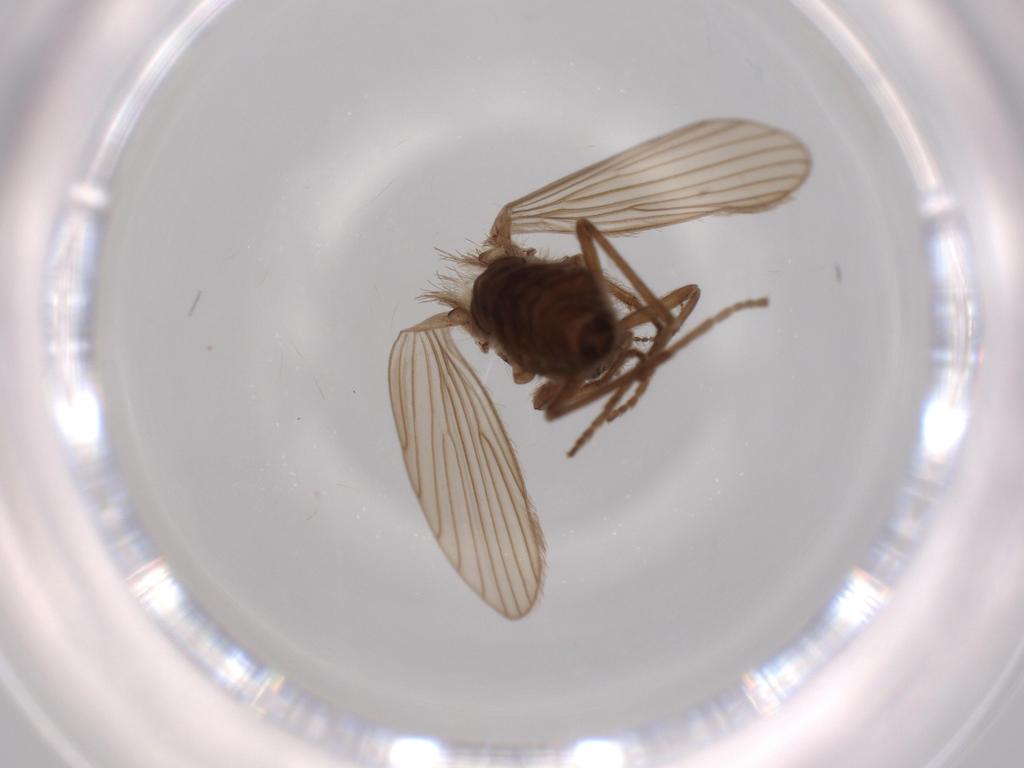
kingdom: Animalia
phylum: Arthropoda
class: Insecta
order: Diptera
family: Psychodidae
